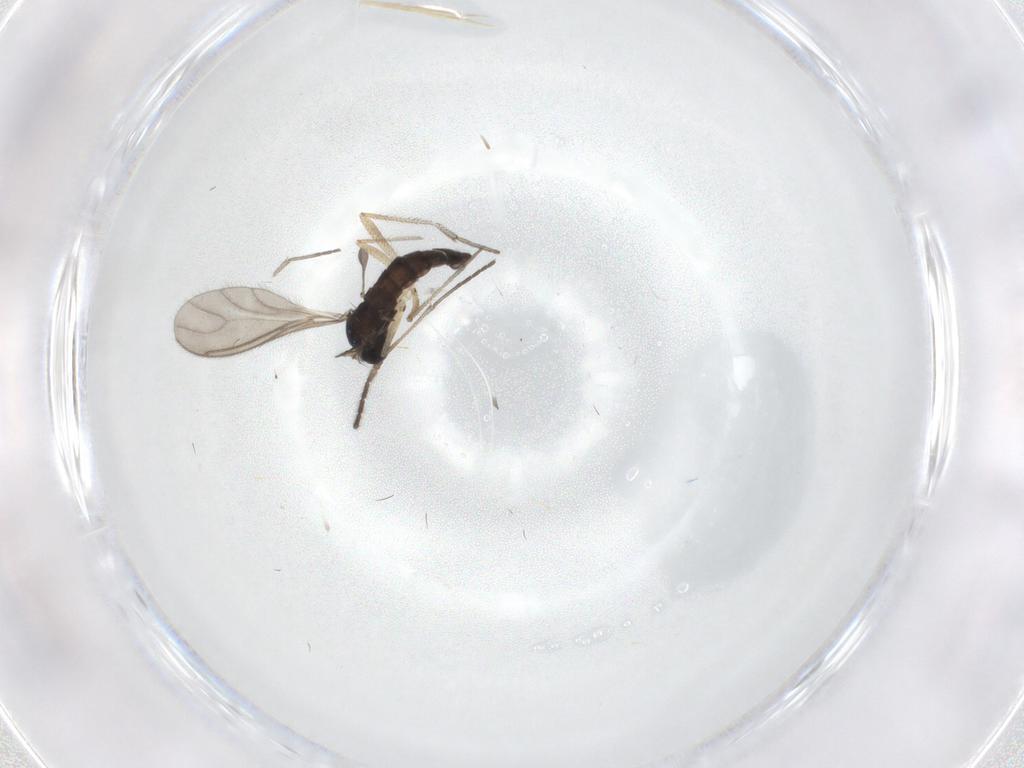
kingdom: Animalia
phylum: Arthropoda
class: Insecta
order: Diptera
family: Sciaridae
